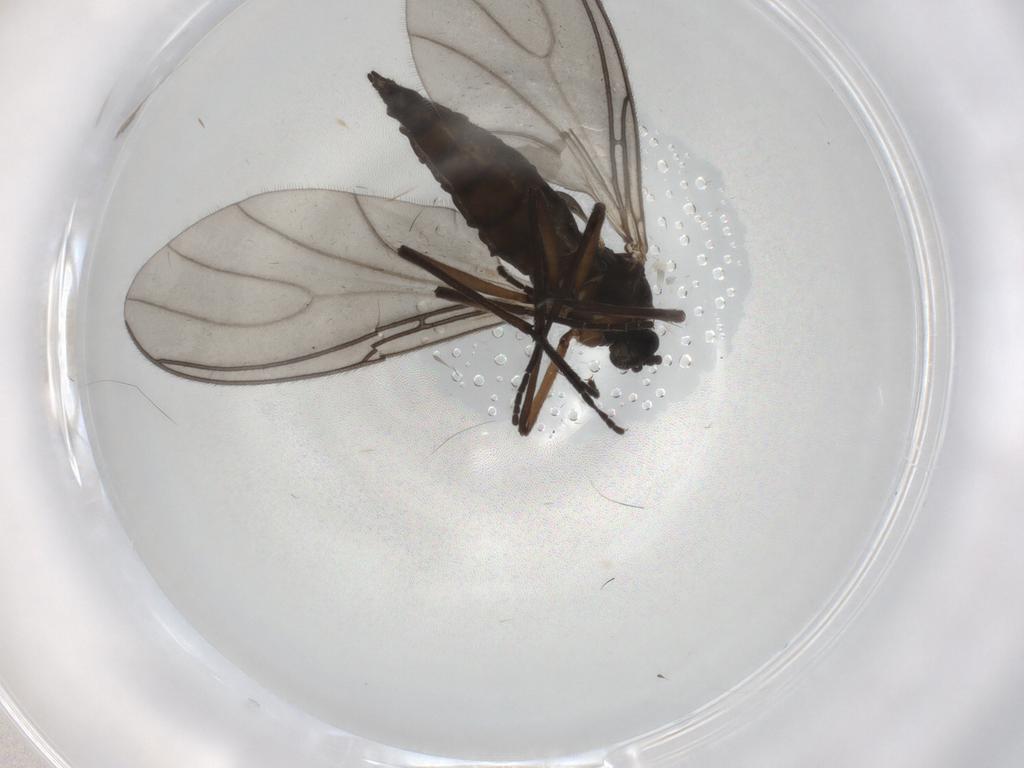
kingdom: Animalia
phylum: Arthropoda
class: Insecta
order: Diptera
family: Sciaridae
